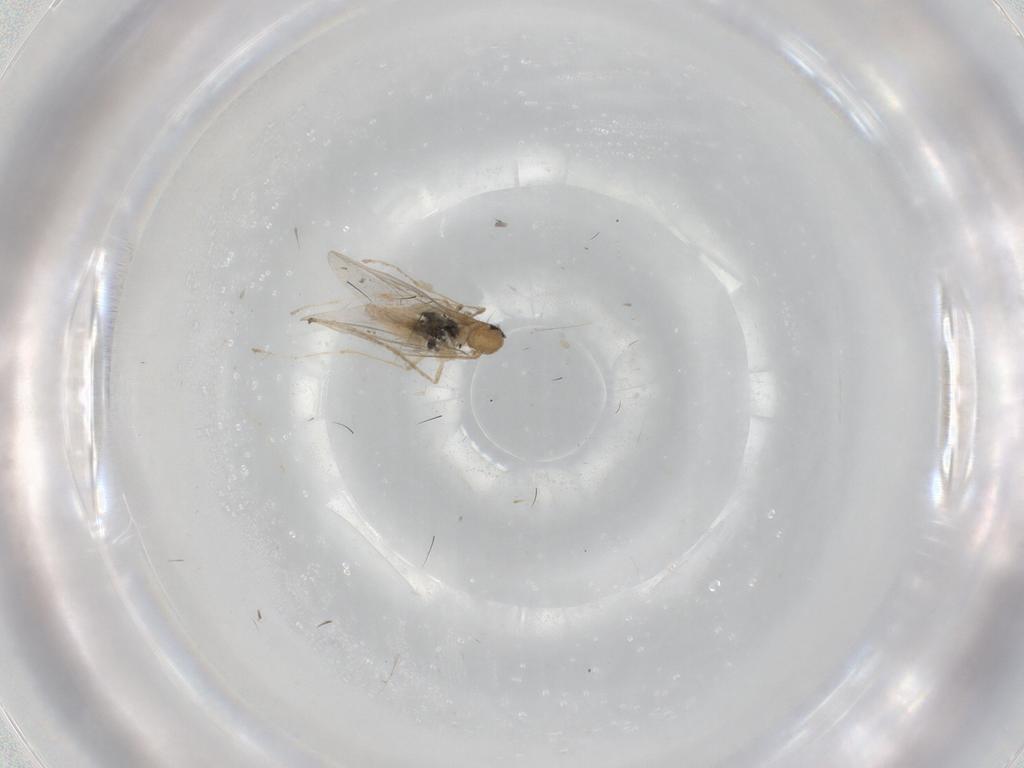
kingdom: Animalia
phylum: Arthropoda
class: Insecta
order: Diptera
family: Cecidomyiidae
